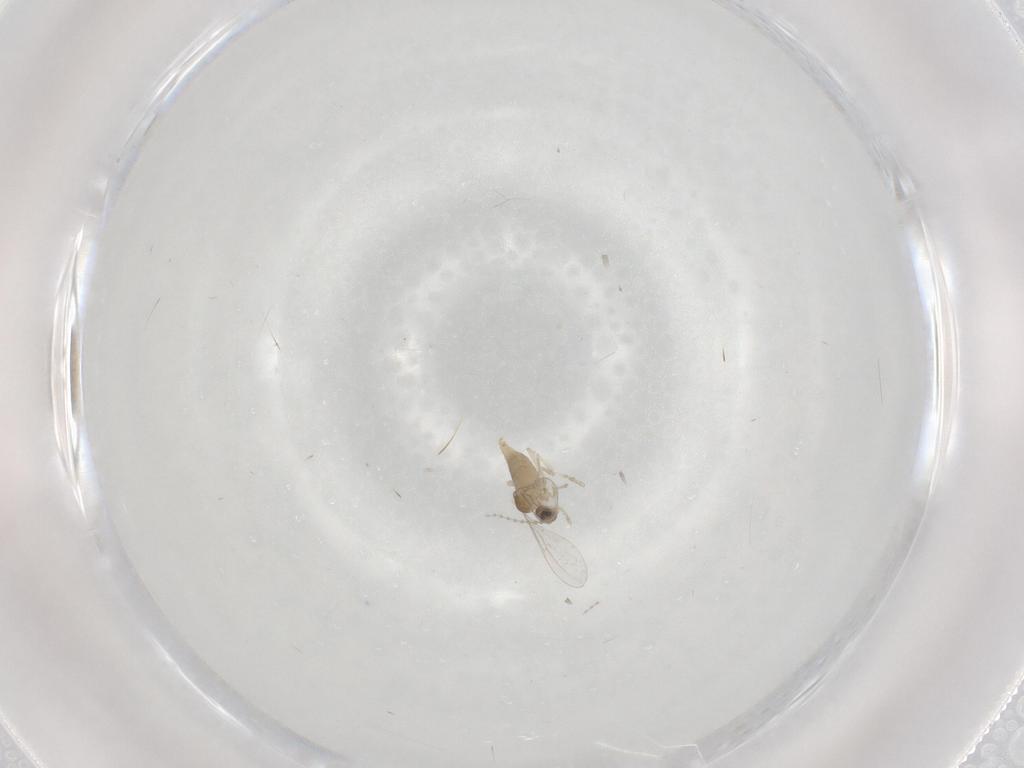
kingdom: Animalia
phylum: Arthropoda
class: Insecta
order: Diptera
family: Cecidomyiidae
